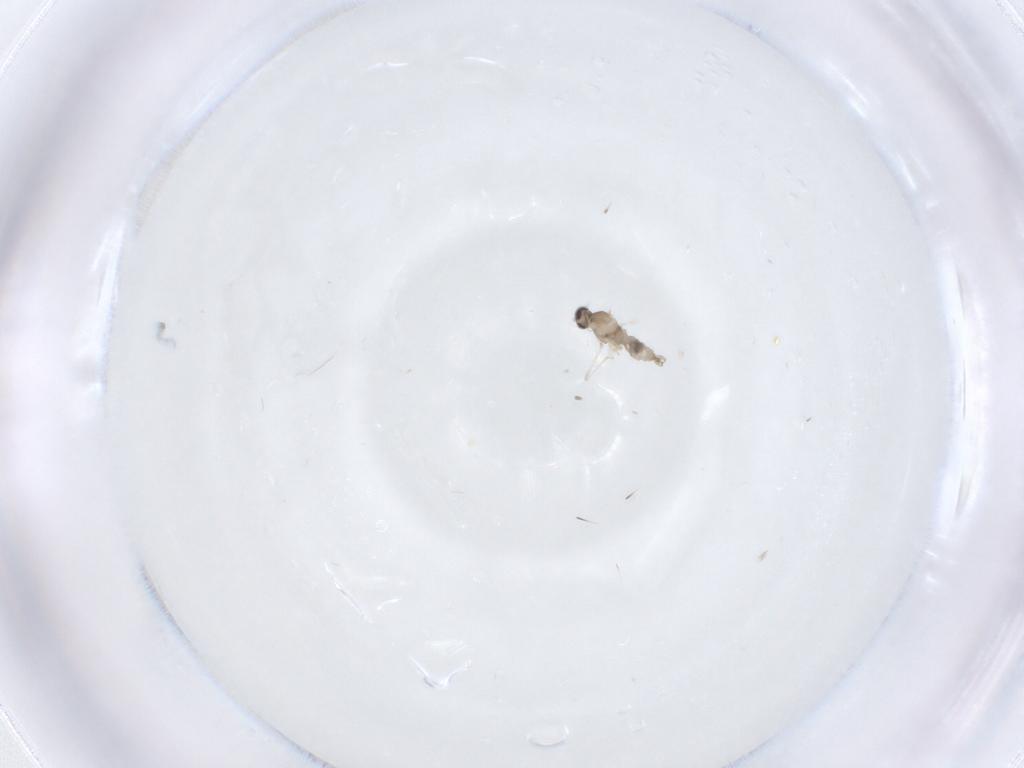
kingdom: Animalia
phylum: Arthropoda
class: Insecta
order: Diptera
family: Cecidomyiidae
